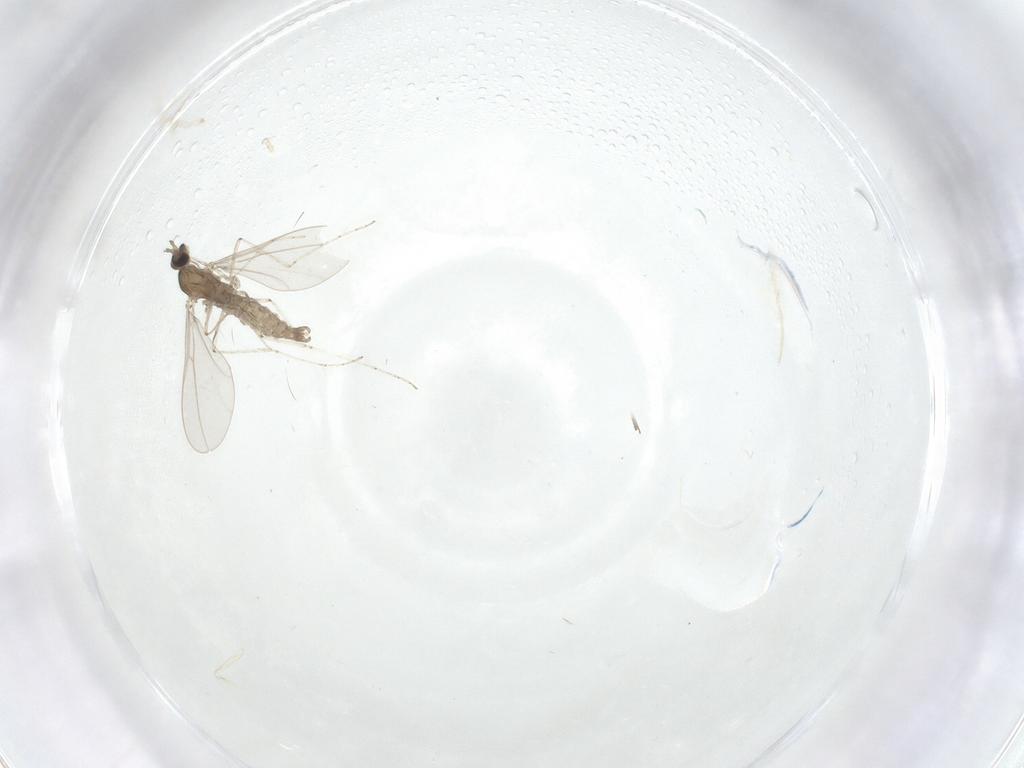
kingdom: Animalia
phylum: Arthropoda
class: Insecta
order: Diptera
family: Cecidomyiidae
